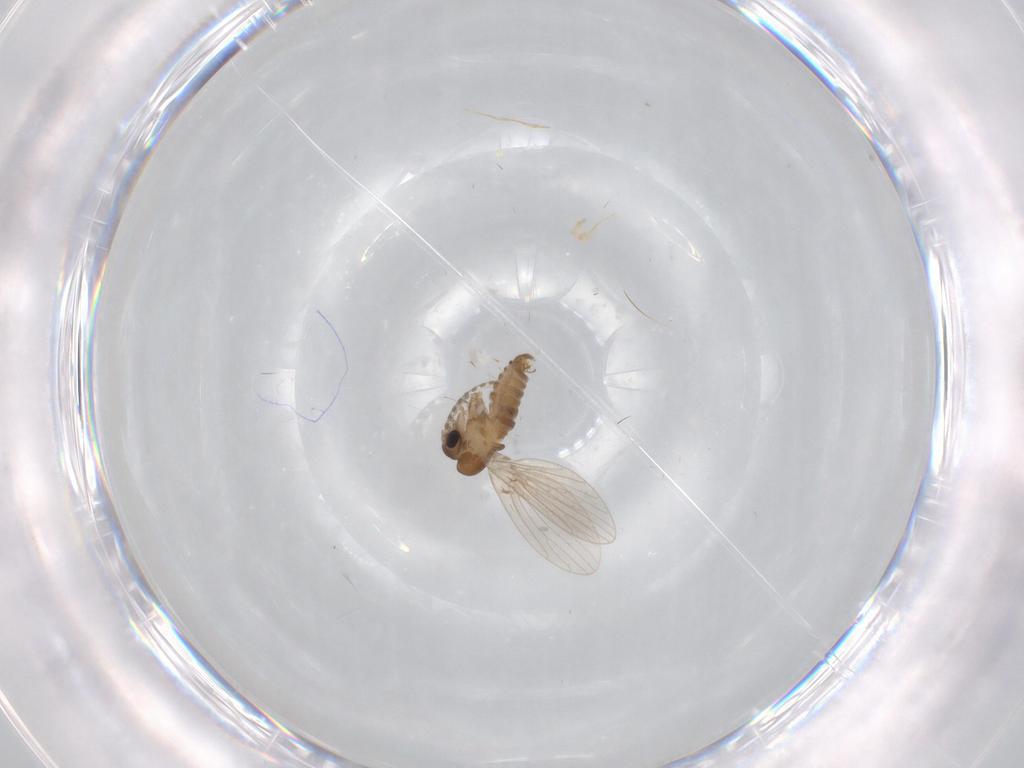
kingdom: Animalia
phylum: Arthropoda
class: Insecta
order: Diptera
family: Psychodidae
